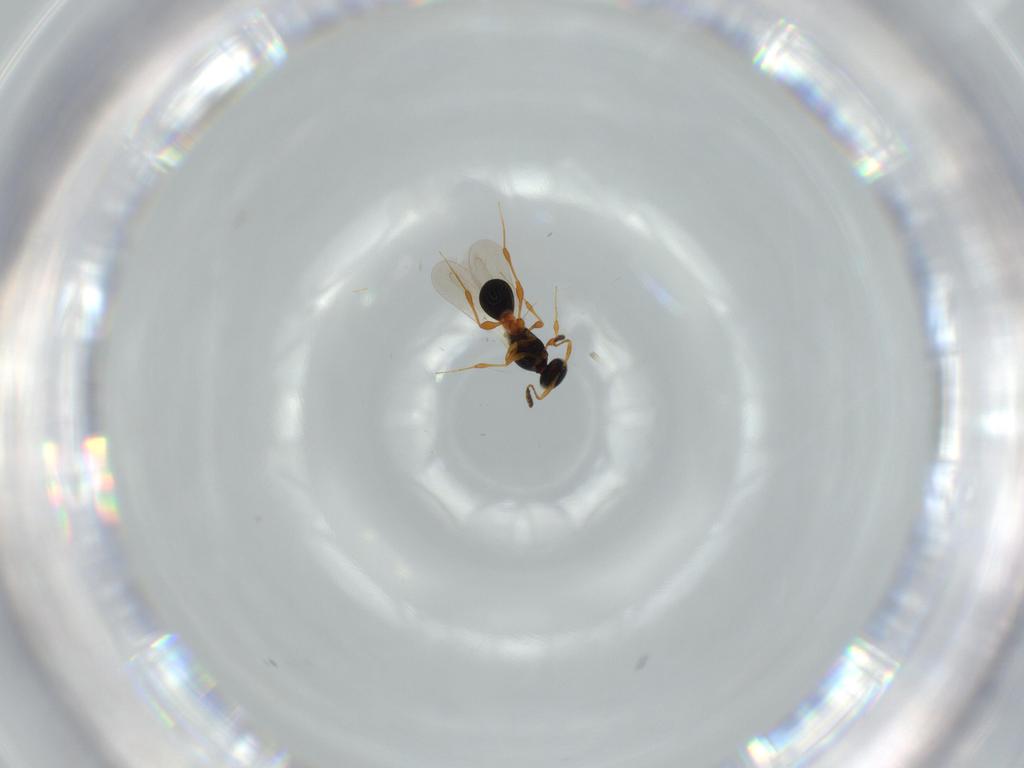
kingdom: Animalia
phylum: Arthropoda
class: Insecta
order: Hymenoptera
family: Platygastridae
